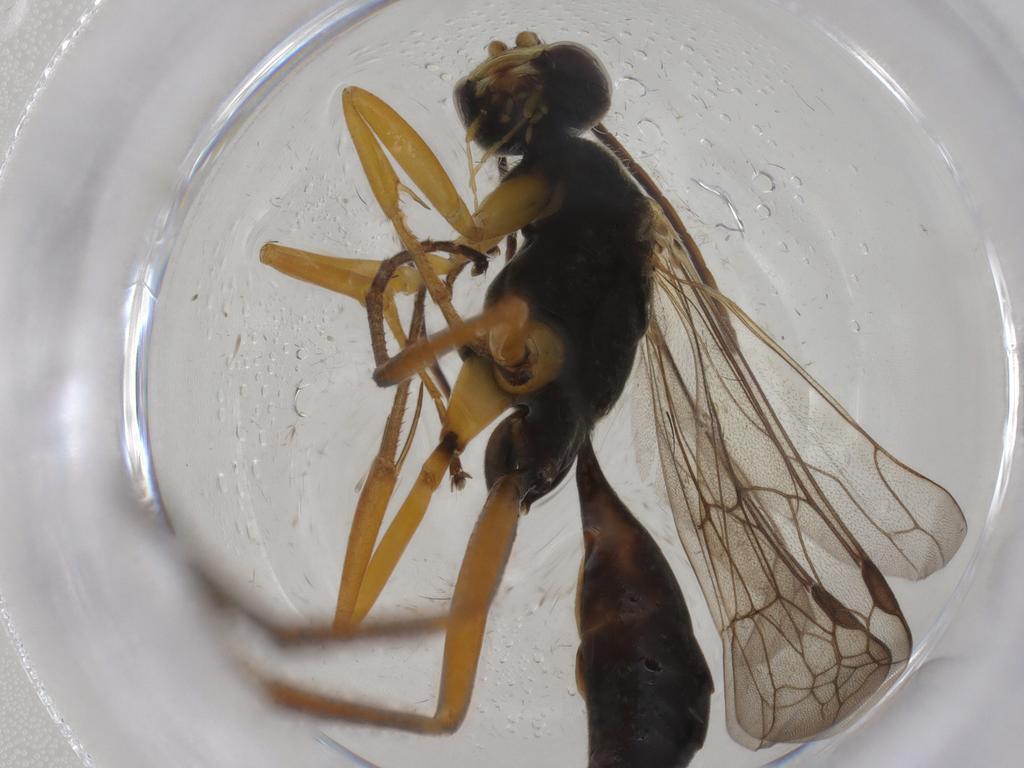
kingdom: Animalia
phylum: Arthropoda
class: Insecta
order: Hymenoptera
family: Pompilidae
